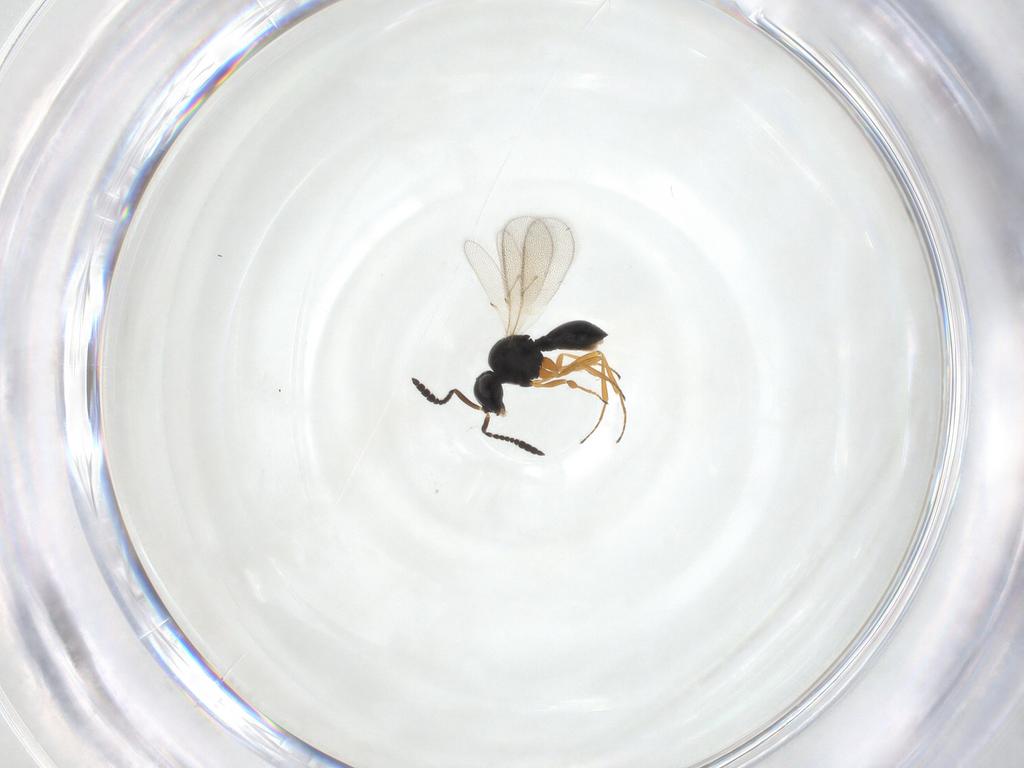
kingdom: Animalia
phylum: Arthropoda
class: Insecta
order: Hymenoptera
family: Scelionidae
